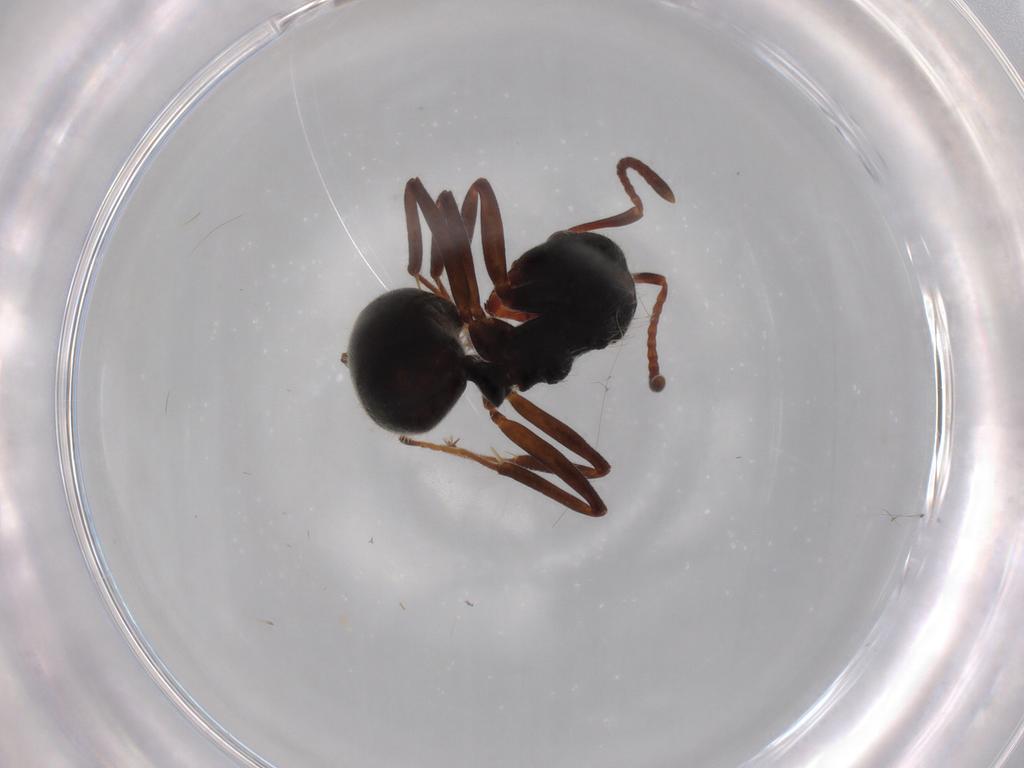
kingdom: Animalia
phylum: Arthropoda
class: Insecta
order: Hymenoptera
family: Formicidae
